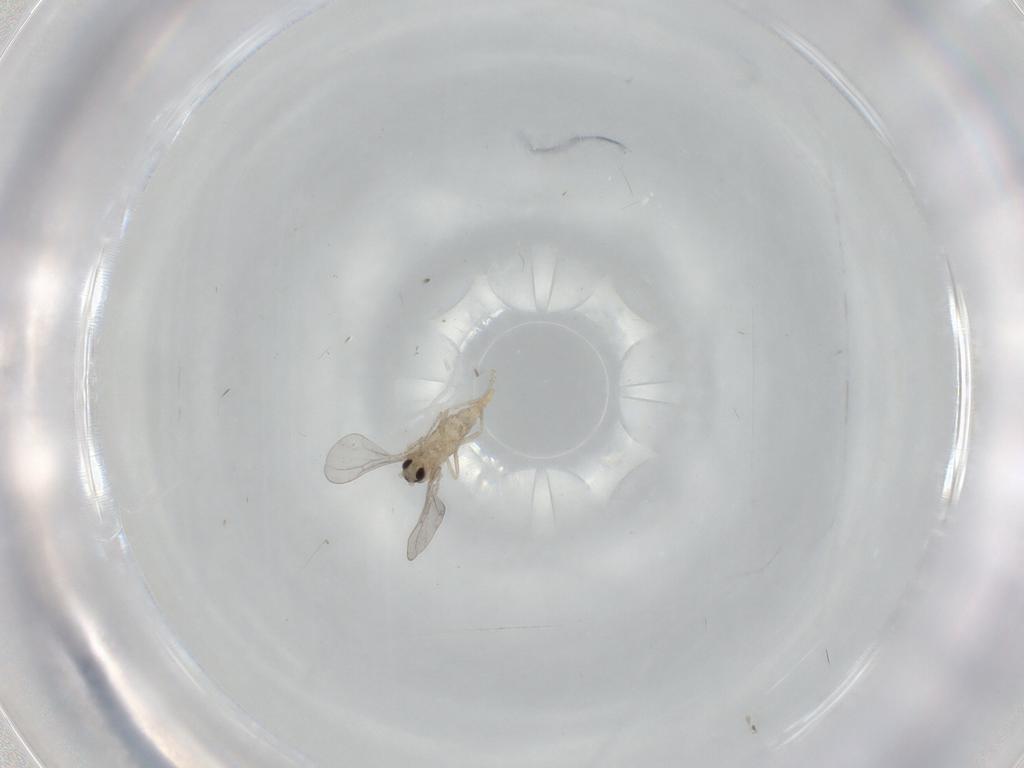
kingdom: Animalia
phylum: Arthropoda
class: Insecta
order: Diptera
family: Cecidomyiidae
